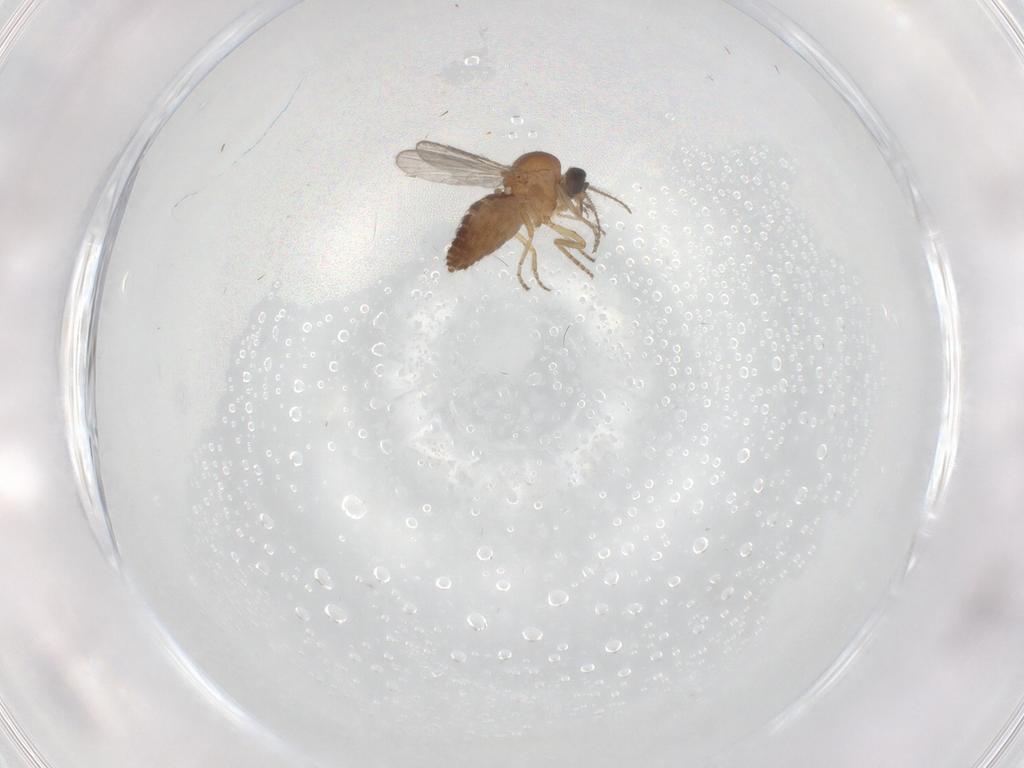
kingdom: Animalia
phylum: Arthropoda
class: Insecta
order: Diptera
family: Ceratopogonidae
